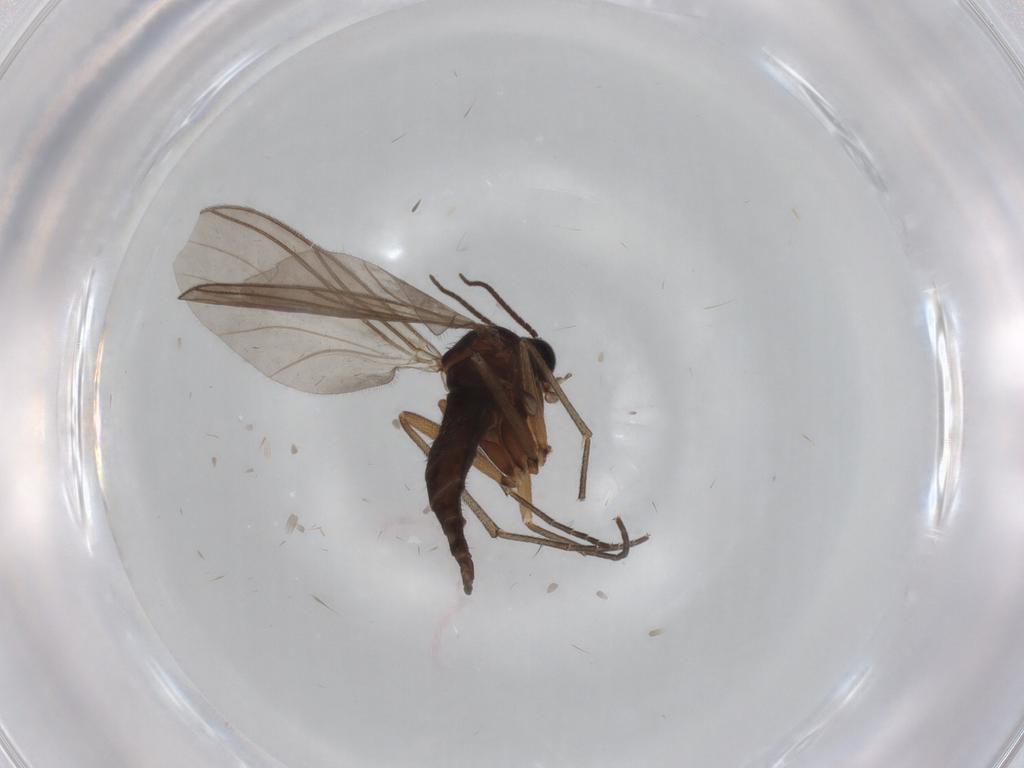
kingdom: Animalia
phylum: Arthropoda
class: Insecta
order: Diptera
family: Sciaridae
